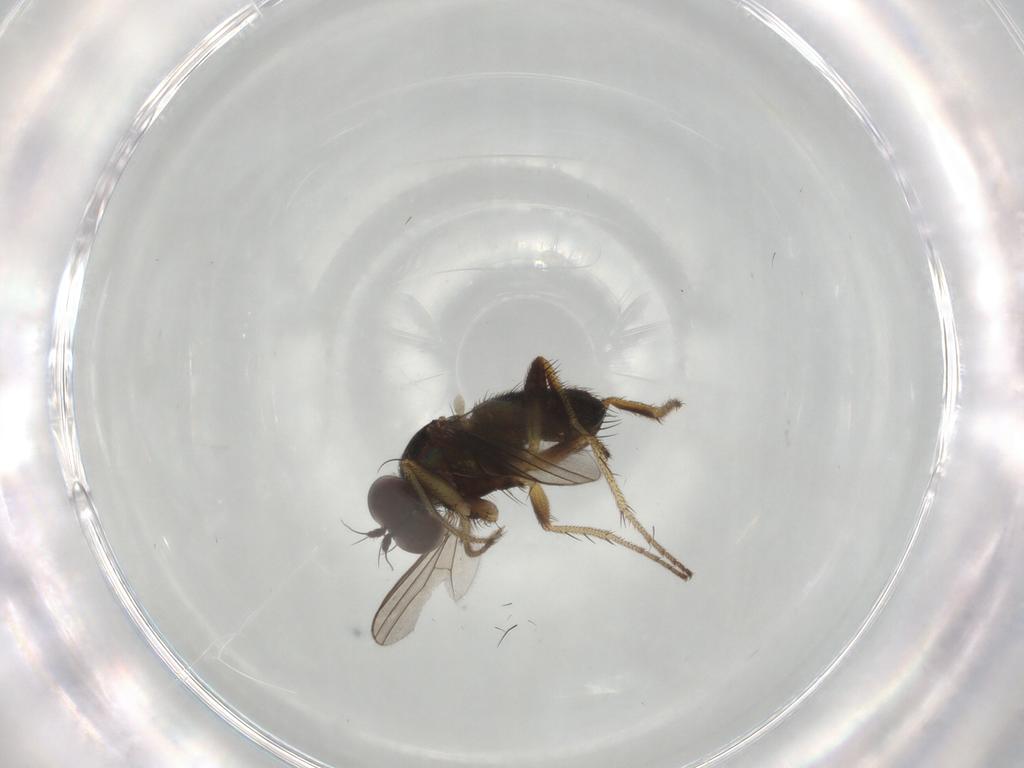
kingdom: Animalia
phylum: Arthropoda
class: Insecta
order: Diptera
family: Dolichopodidae
